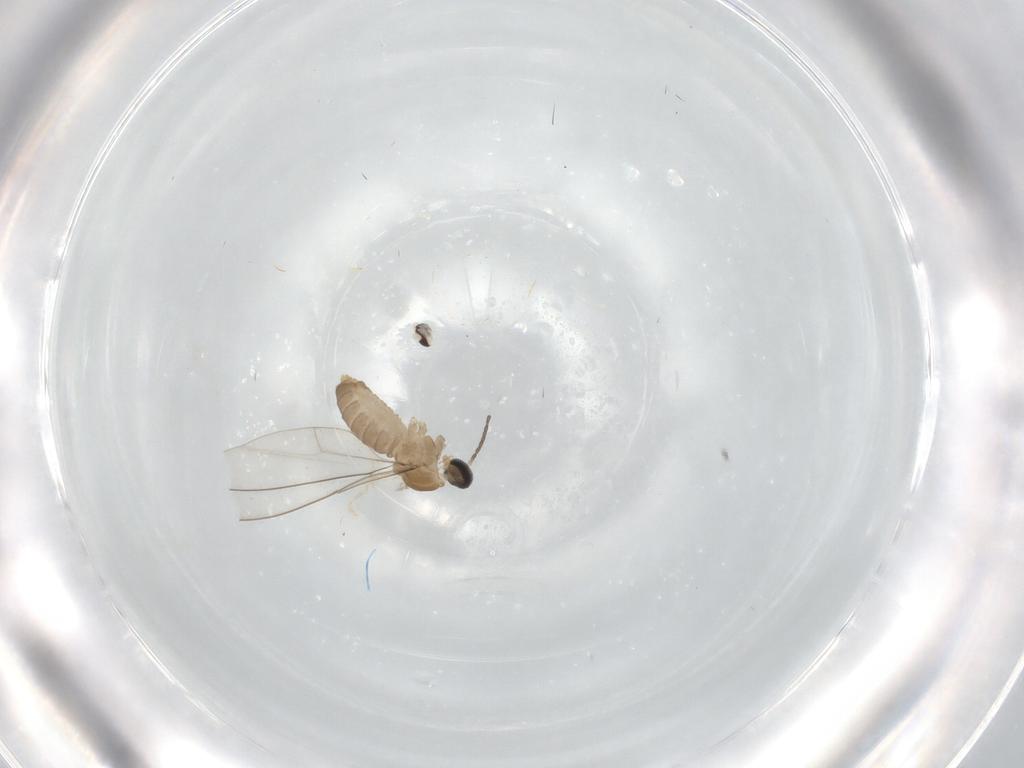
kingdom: Animalia
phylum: Arthropoda
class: Insecta
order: Diptera
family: Cecidomyiidae
